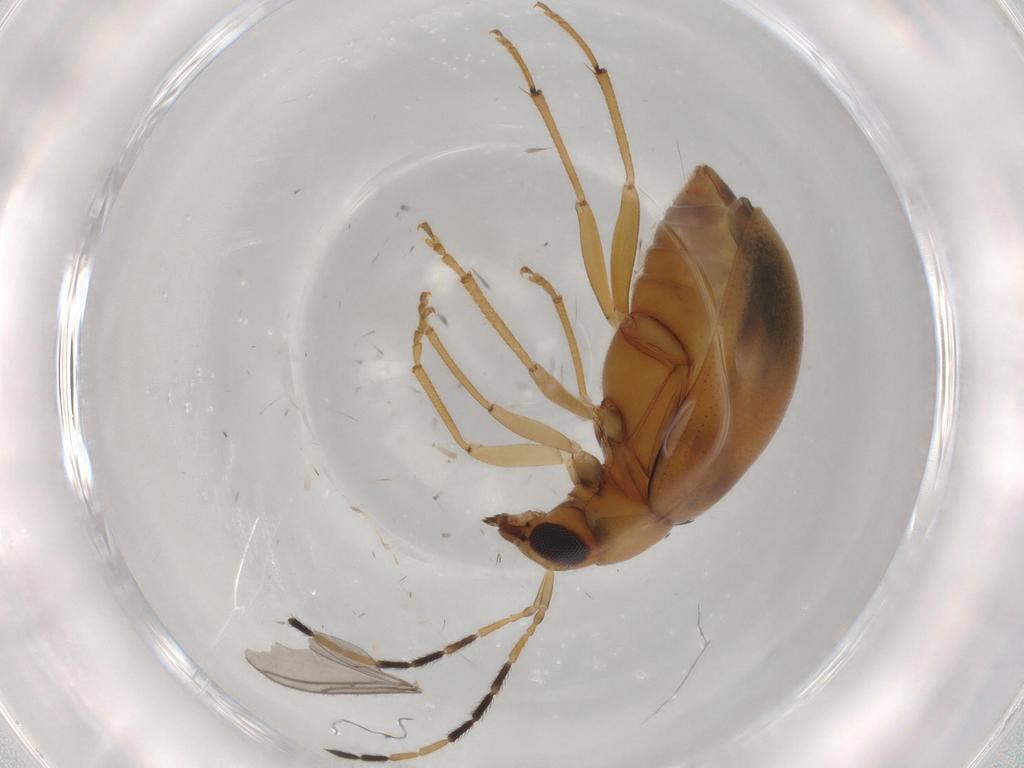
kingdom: Animalia
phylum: Arthropoda
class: Insecta
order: Coleoptera
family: Chrysomelidae
